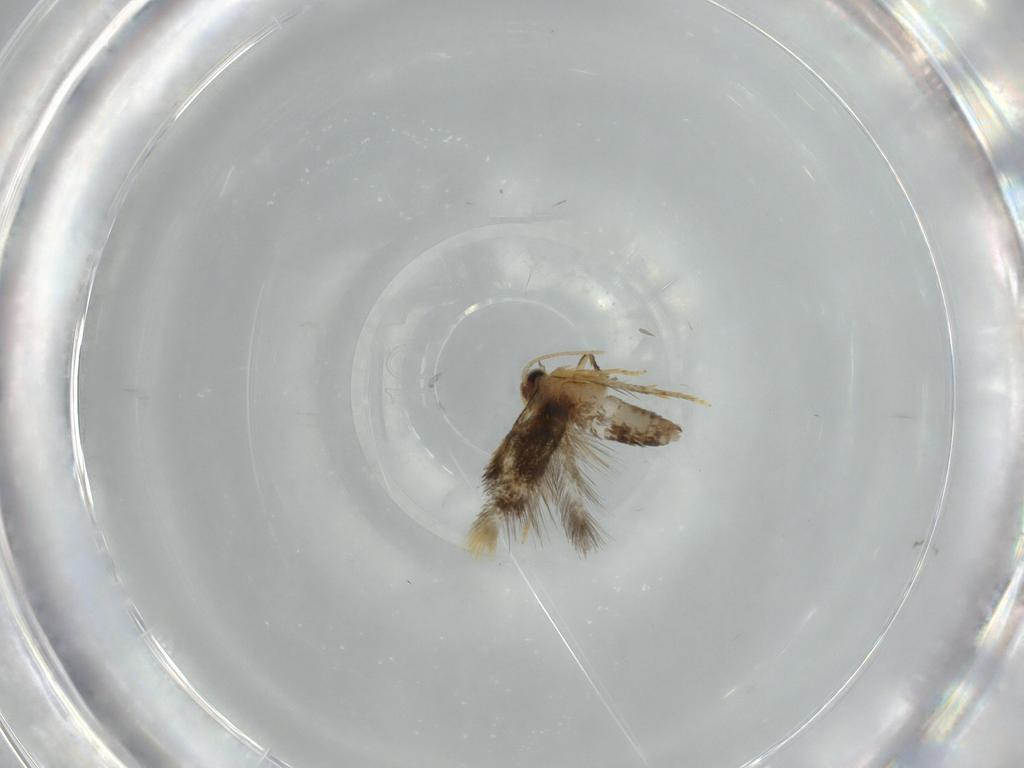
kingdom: Animalia
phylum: Arthropoda
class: Insecta
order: Lepidoptera
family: Copromorphidae
